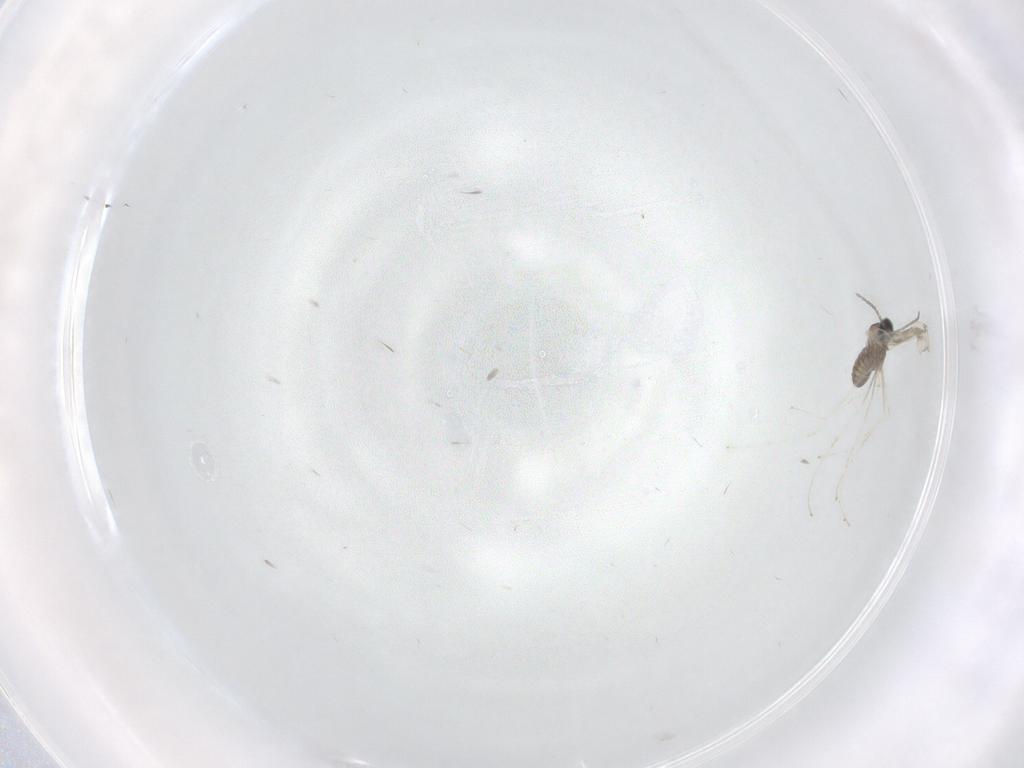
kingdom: Animalia
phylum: Arthropoda
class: Insecta
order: Diptera
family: Cecidomyiidae
